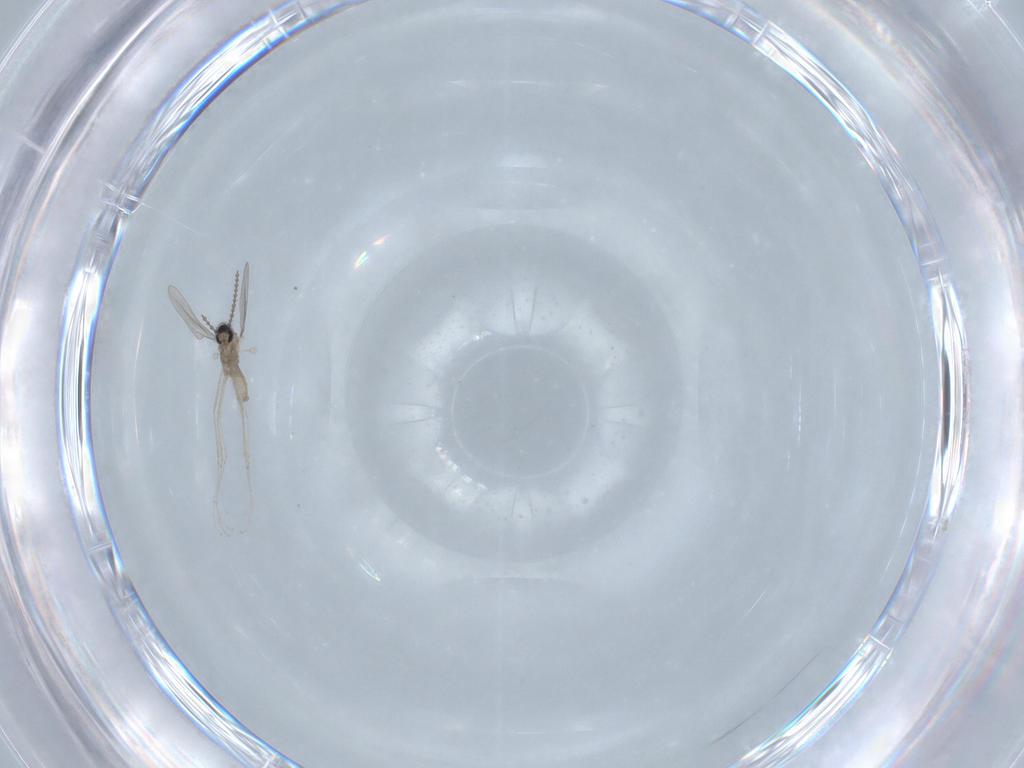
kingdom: Animalia
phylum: Arthropoda
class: Insecta
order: Diptera
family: Cecidomyiidae
